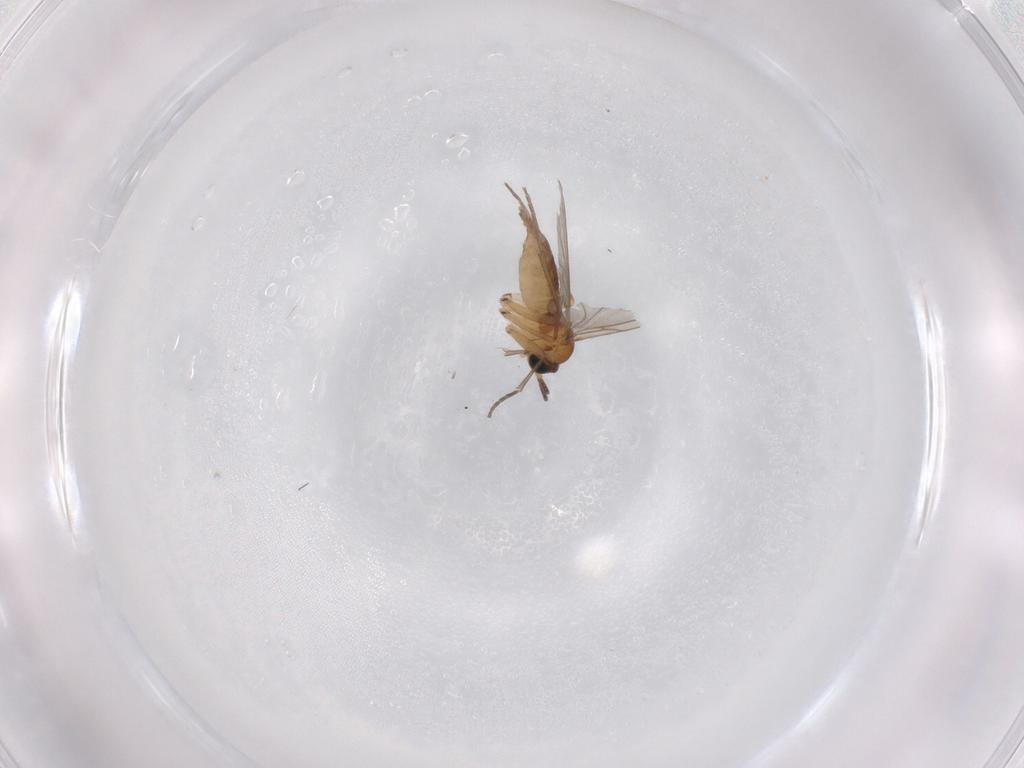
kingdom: Animalia
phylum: Arthropoda
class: Insecta
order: Diptera
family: Sciaridae
